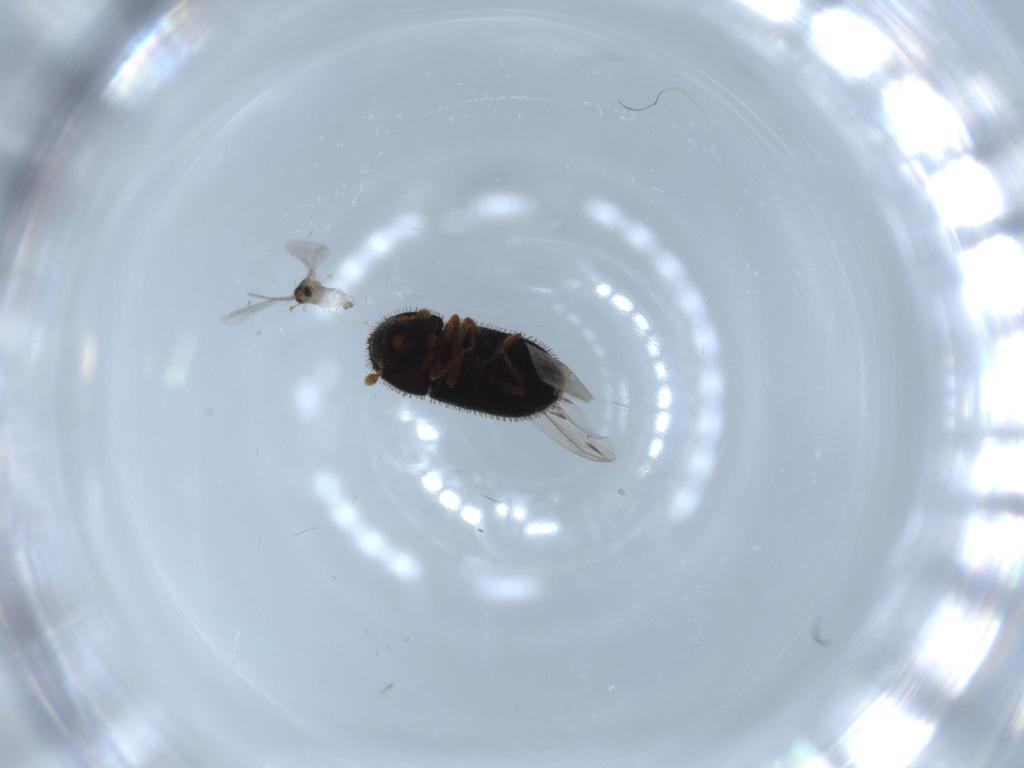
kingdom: Animalia
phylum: Arthropoda
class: Insecta
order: Diptera
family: Cecidomyiidae
